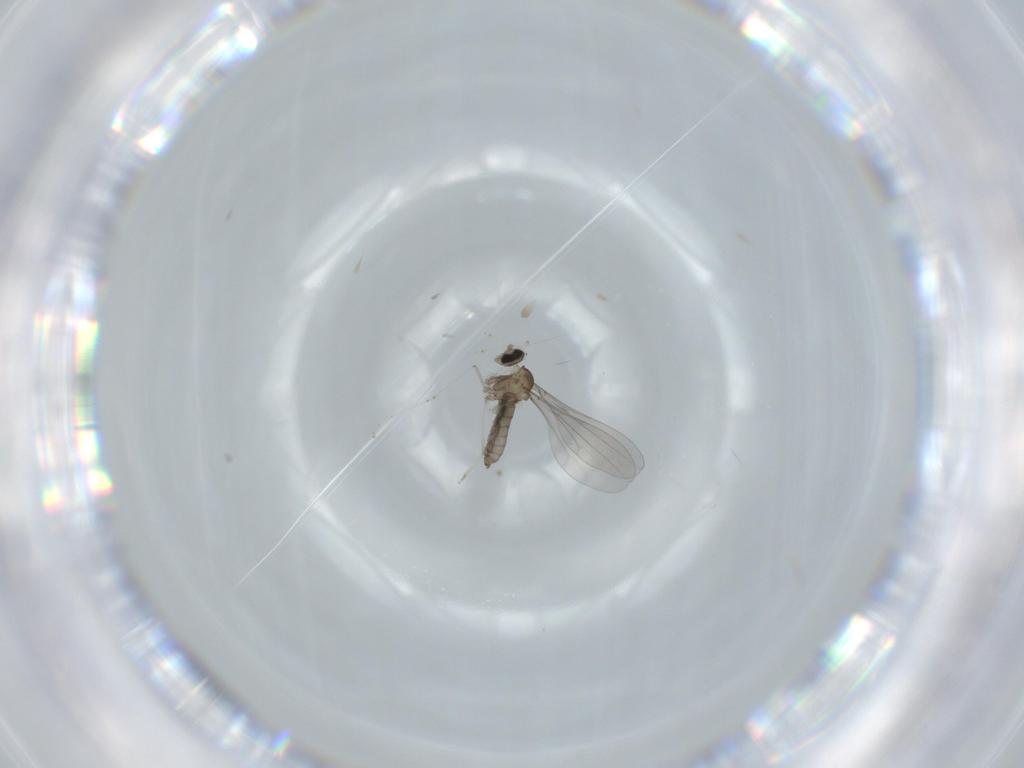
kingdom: Animalia
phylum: Arthropoda
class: Insecta
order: Diptera
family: Cecidomyiidae
